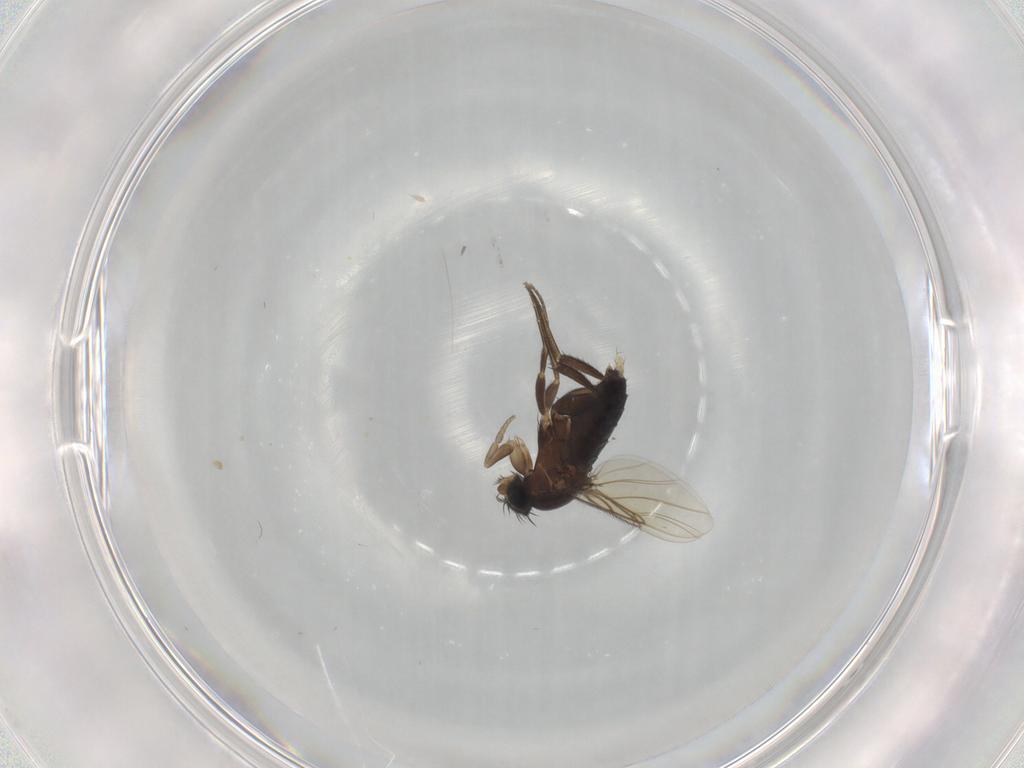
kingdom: Animalia
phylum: Arthropoda
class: Insecta
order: Diptera
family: Phoridae
